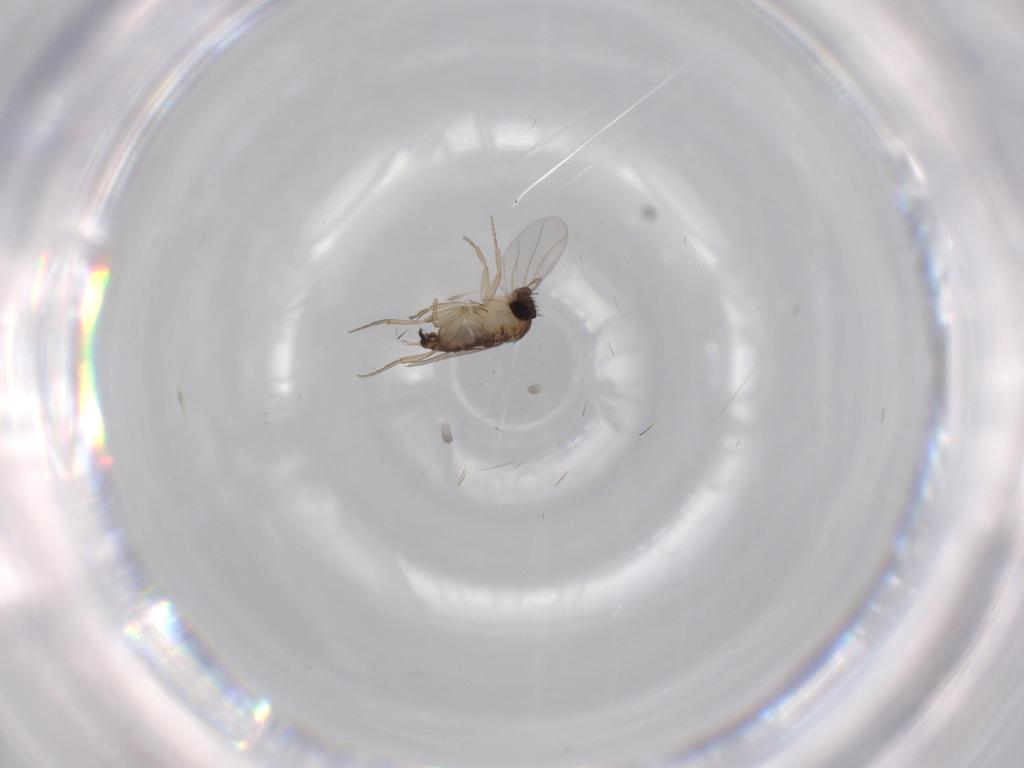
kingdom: Animalia
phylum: Arthropoda
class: Insecta
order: Diptera
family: Phoridae
